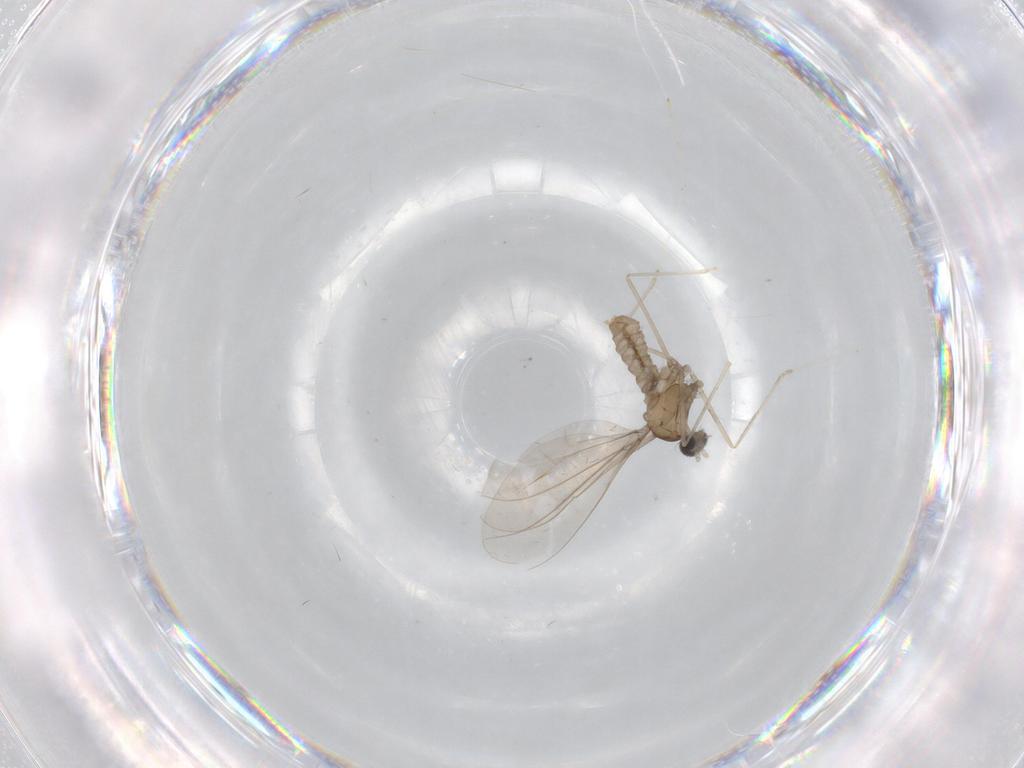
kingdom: Animalia
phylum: Arthropoda
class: Insecta
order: Diptera
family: Cecidomyiidae
